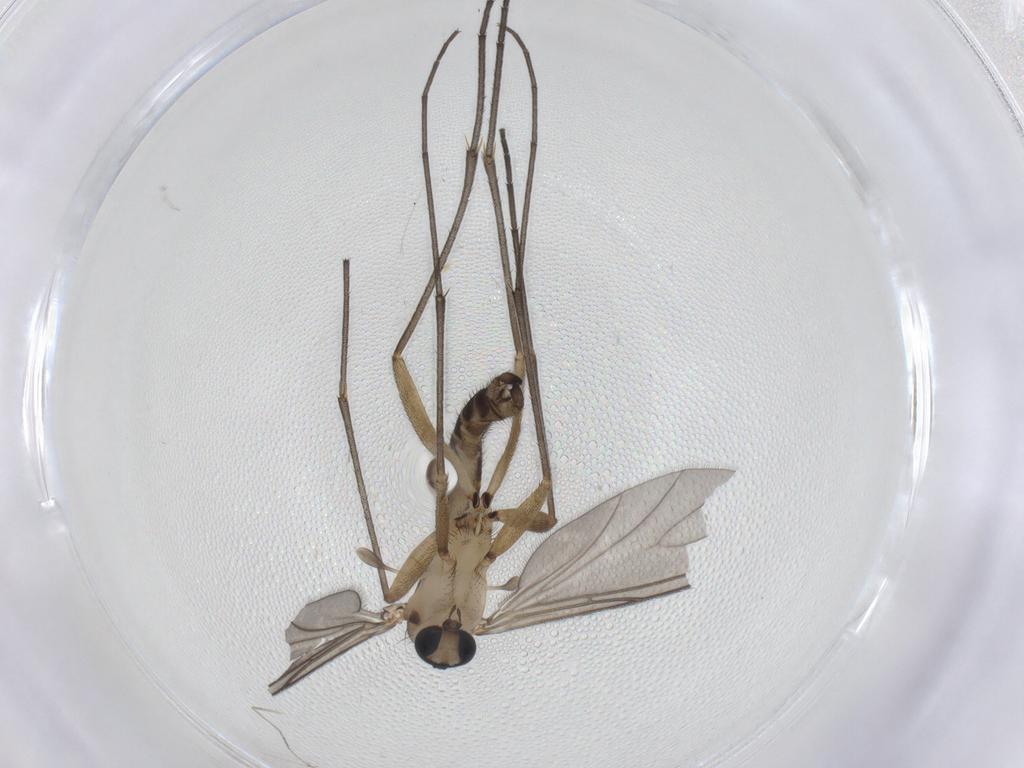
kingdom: Animalia
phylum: Arthropoda
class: Insecta
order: Diptera
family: Sciaridae
